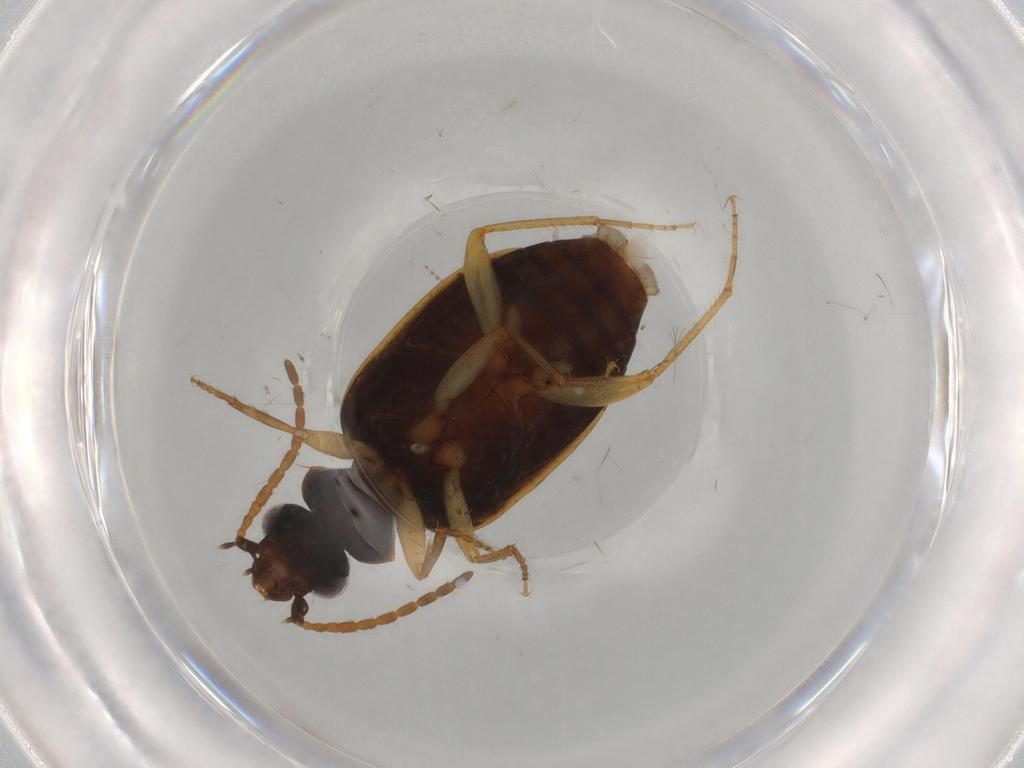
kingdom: Animalia
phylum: Arthropoda
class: Insecta
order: Coleoptera
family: Carabidae
